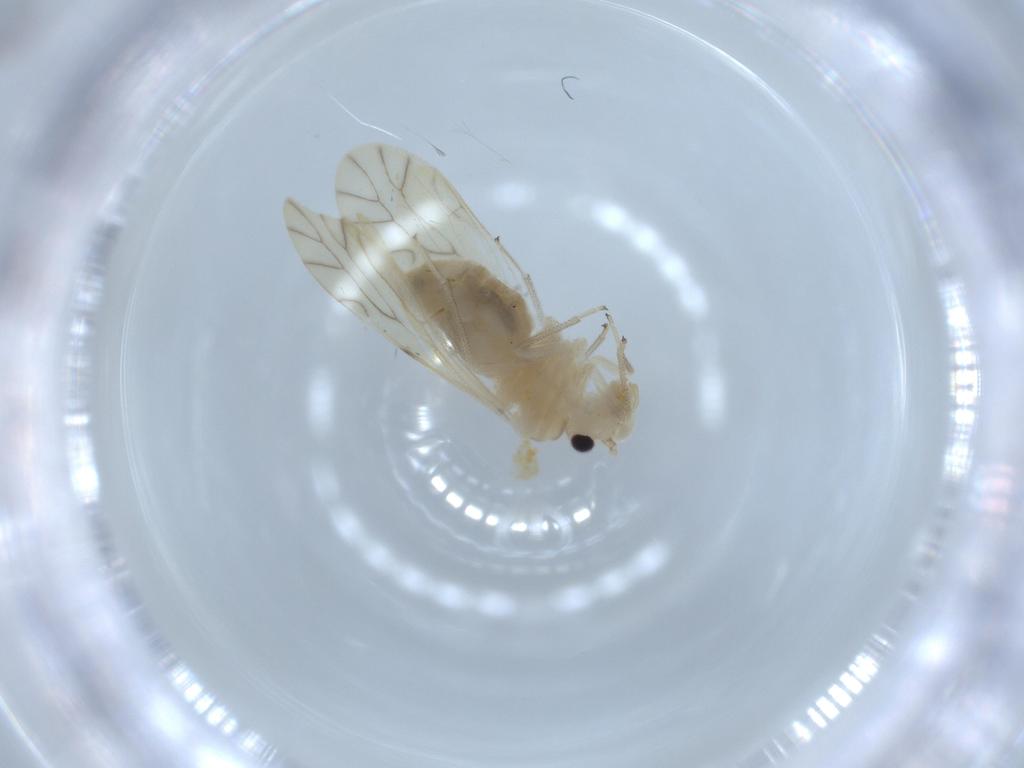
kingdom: Animalia
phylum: Arthropoda
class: Insecta
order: Psocodea
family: Caeciliusidae
